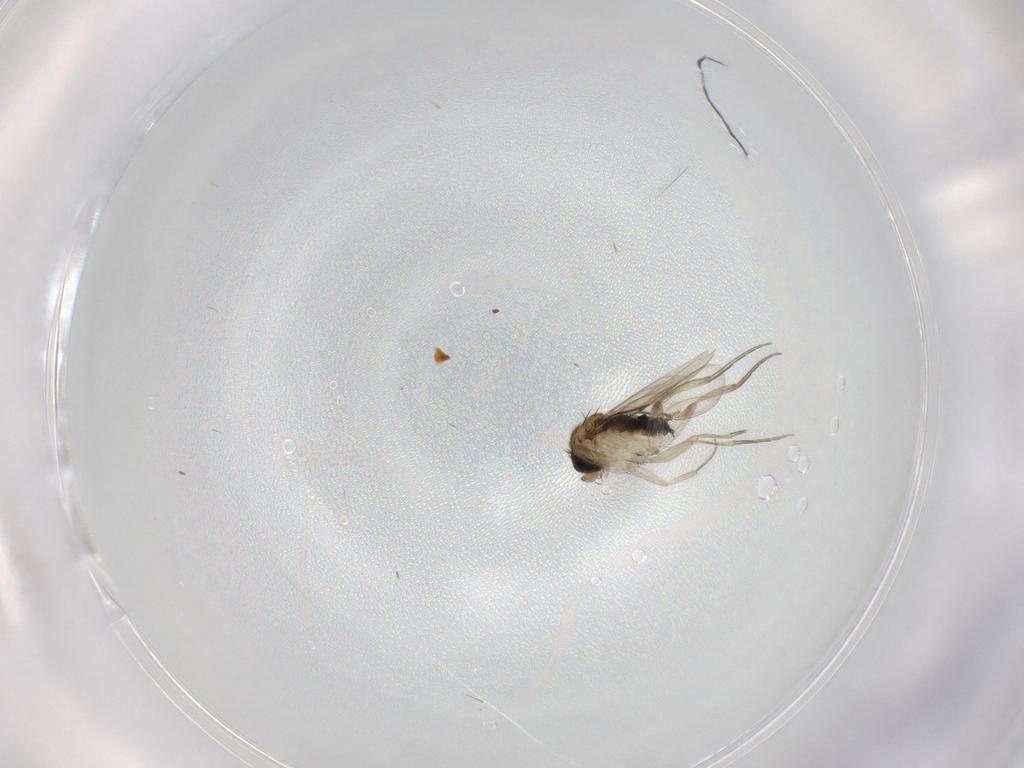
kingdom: Animalia
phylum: Arthropoda
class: Insecta
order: Diptera
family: Phoridae
